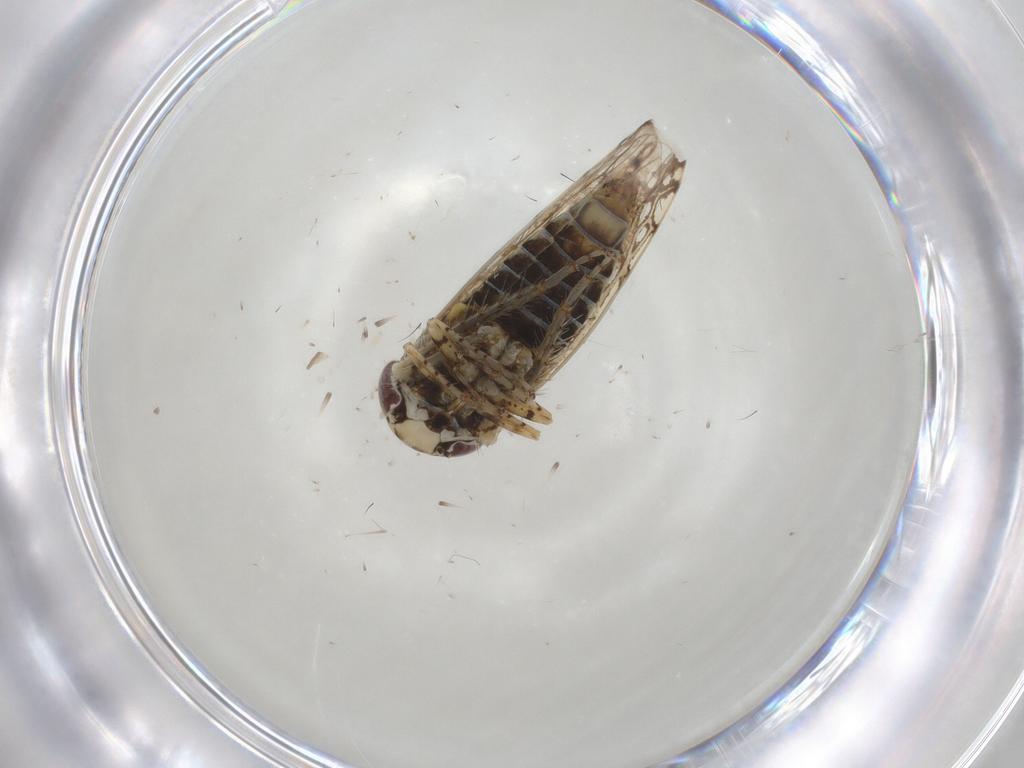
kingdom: Animalia
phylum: Arthropoda
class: Insecta
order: Hemiptera
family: Cicadellidae
